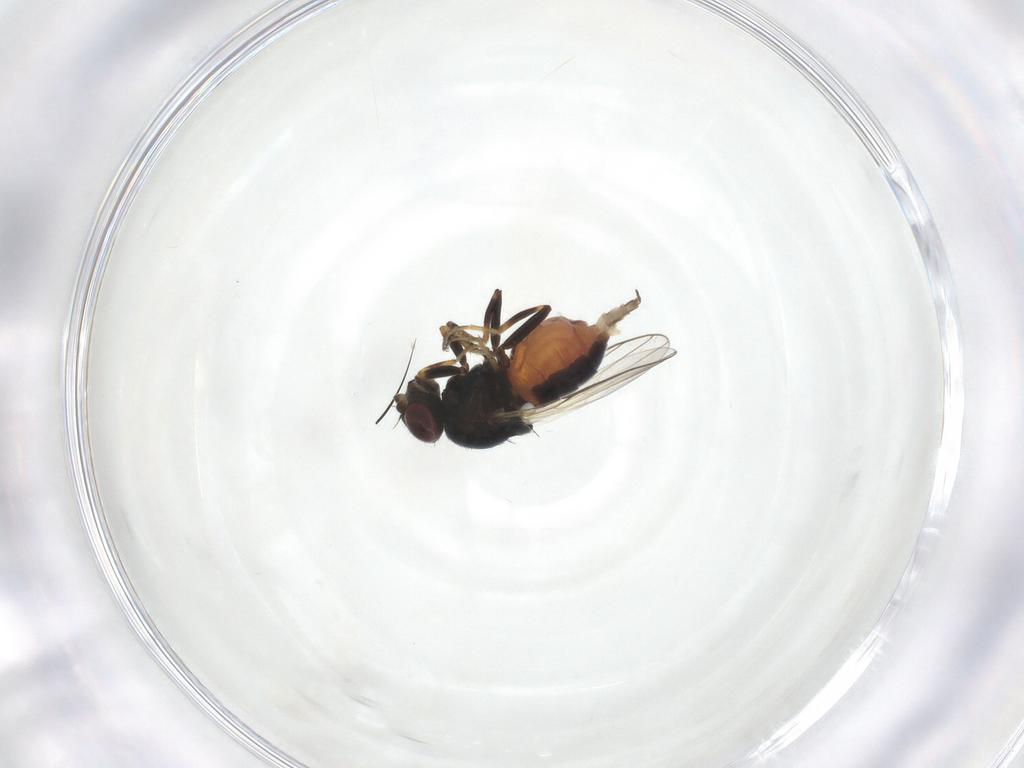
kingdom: Animalia
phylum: Arthropoda
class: Insecta
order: Diptera
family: Chloropidae
